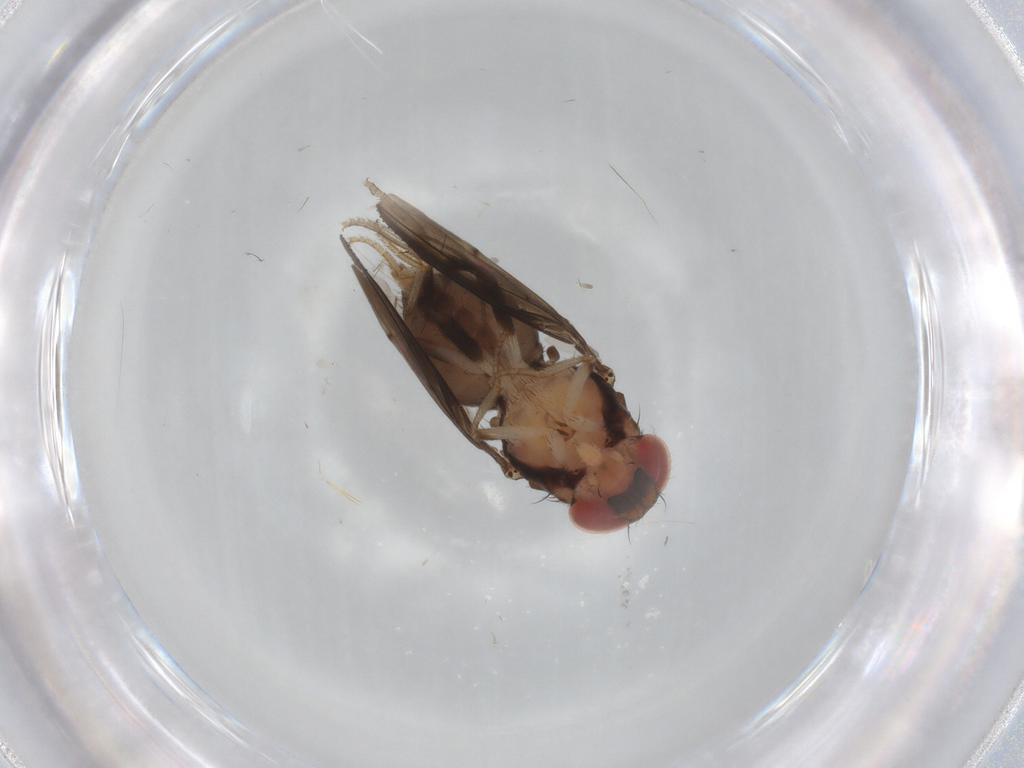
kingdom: Animalia
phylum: Arthropoda
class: Insecta
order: Diptera
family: Drosophilidae
